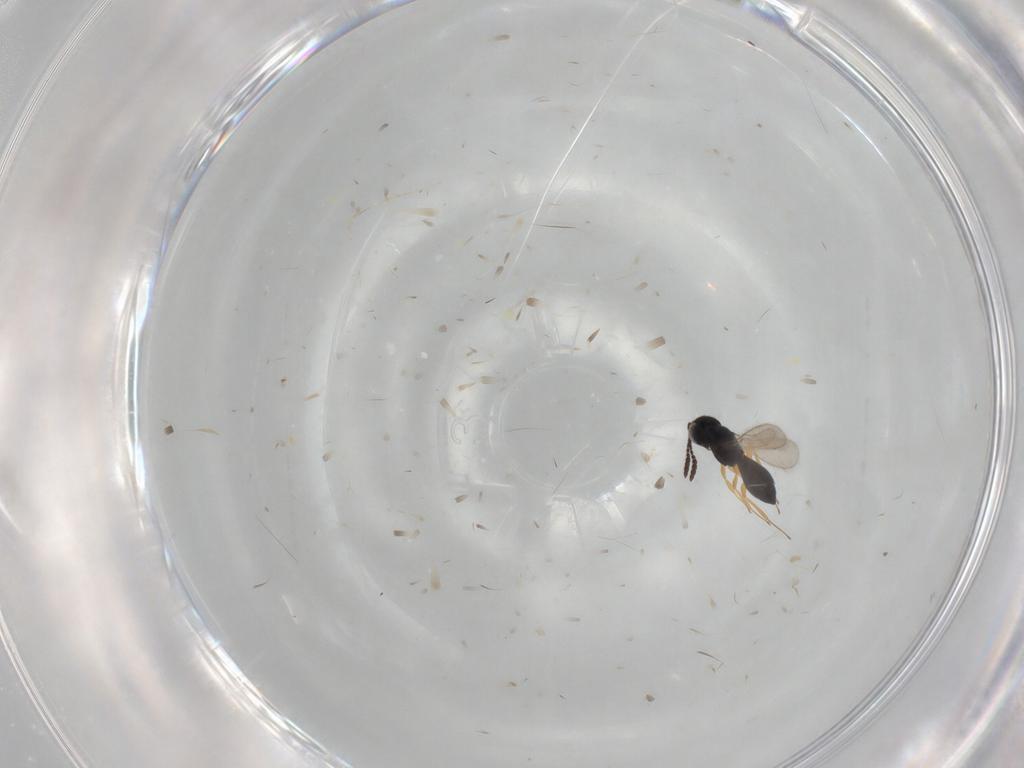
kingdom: Animalia
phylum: Arthropoda
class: Insecta
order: Hymenoptera
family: Scelionidae
